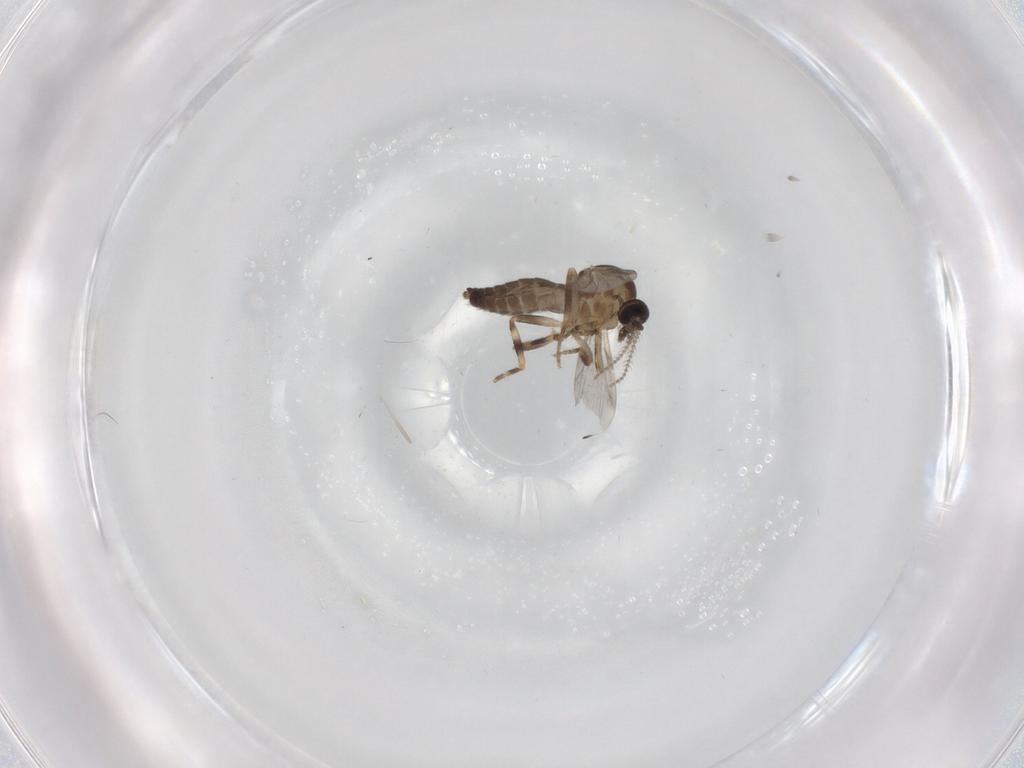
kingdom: Animalia
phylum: Arthropoda
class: Insecta
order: Diptera
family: Ceratopogonidae
